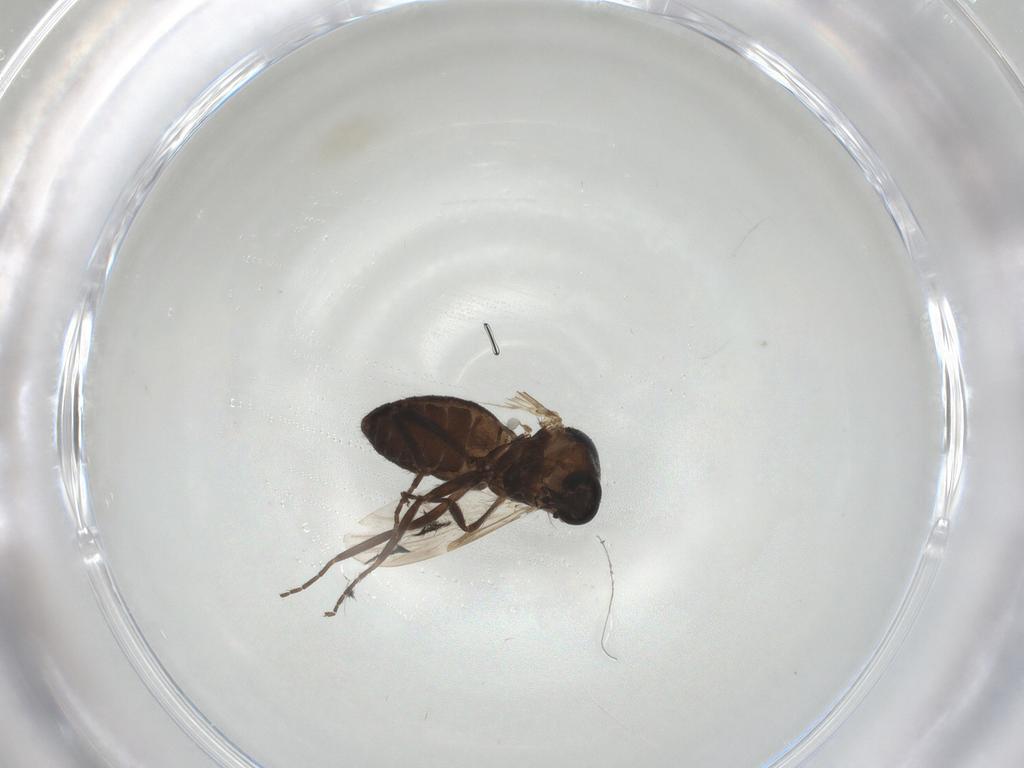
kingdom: Animalia
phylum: Arthropoda
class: Insecta
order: Diptera
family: Ceratopogonidae
